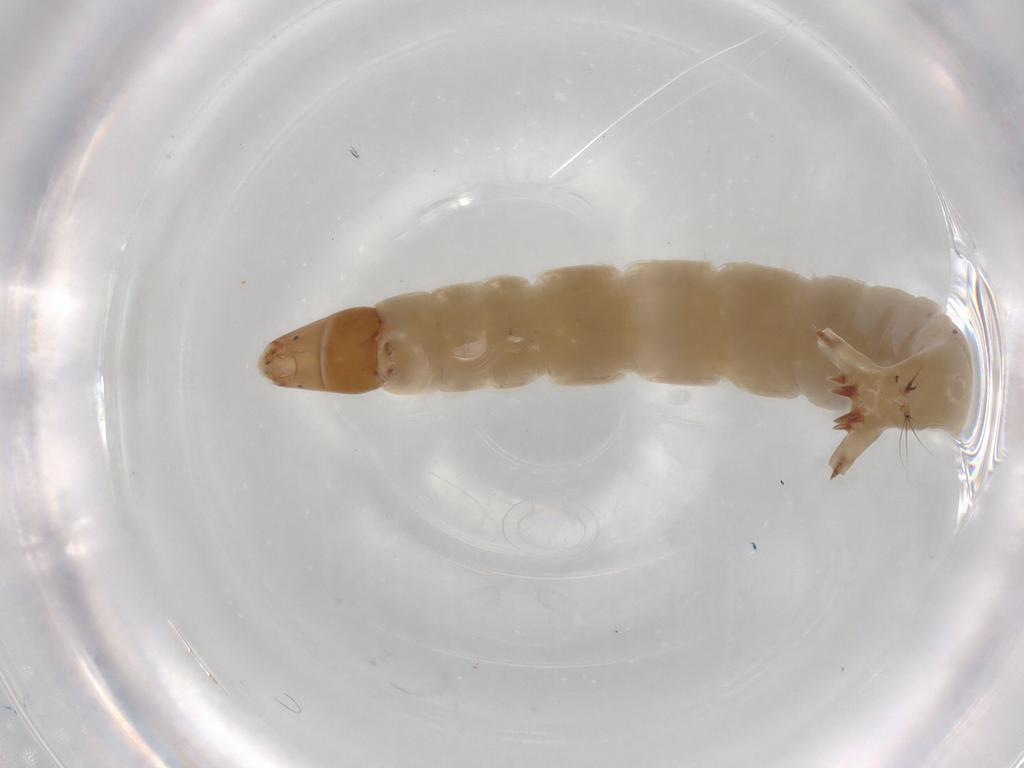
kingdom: Animalia
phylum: Arthropoda
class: Insecta
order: Diptera
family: Chironomidae
